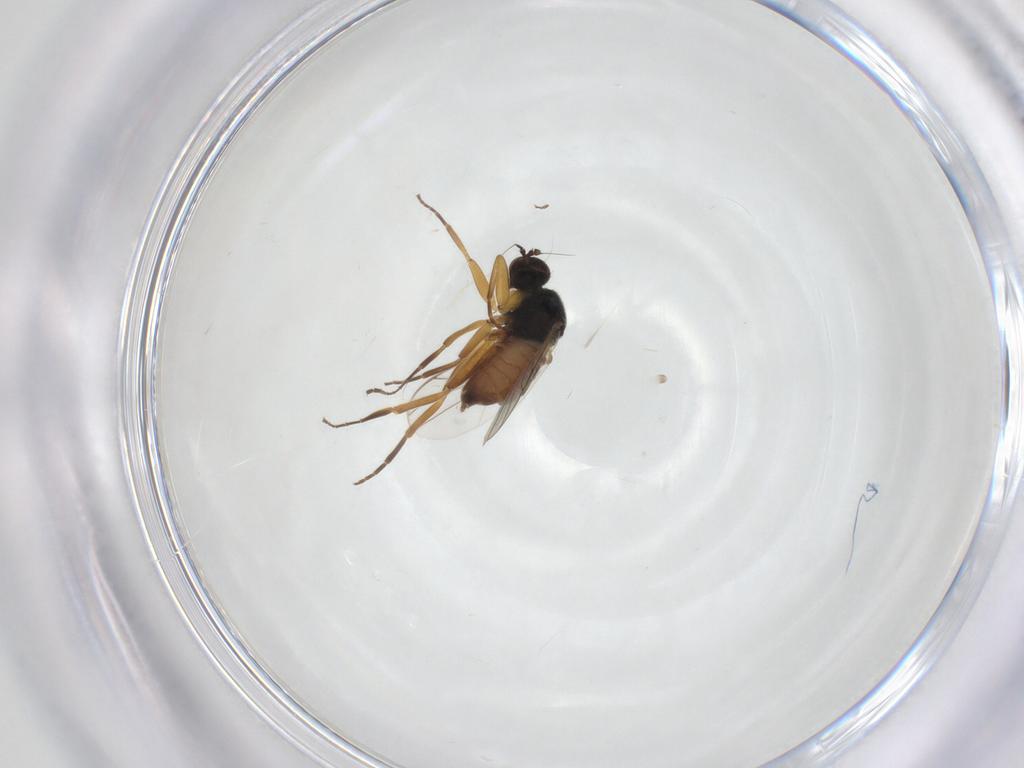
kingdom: Animalia
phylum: Arthropoda
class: Insecta
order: Diptera
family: Hybotidae
